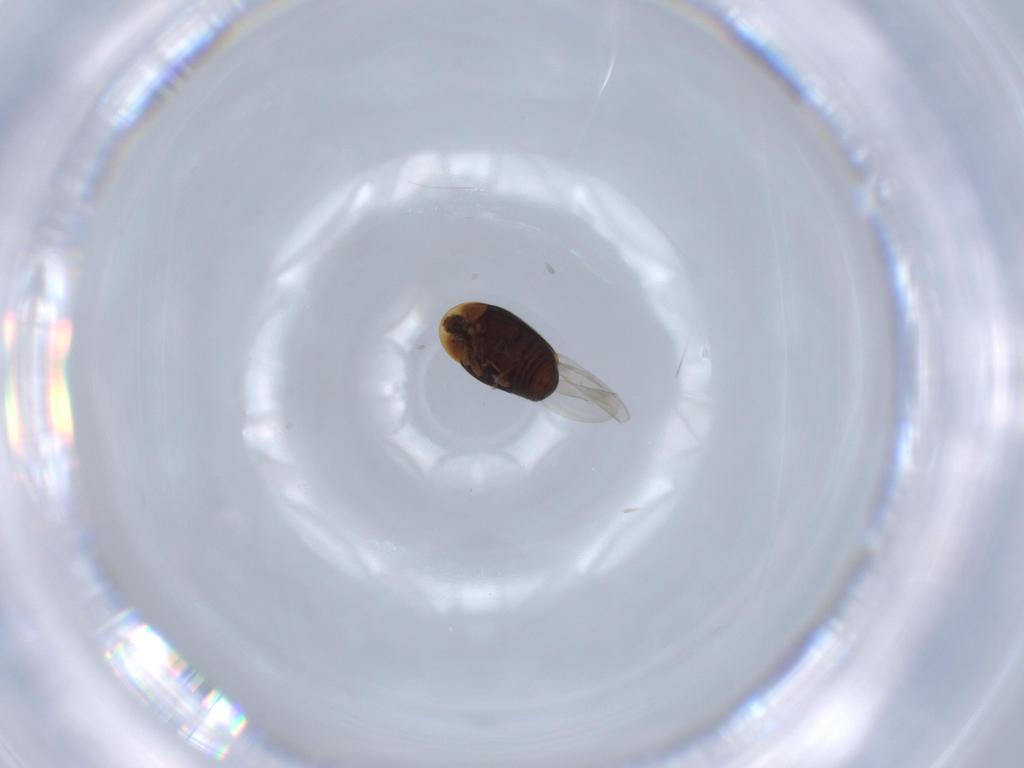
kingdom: Animalia
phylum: Arthropoda
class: Insecta
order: Coleoptera
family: Corylophidae
